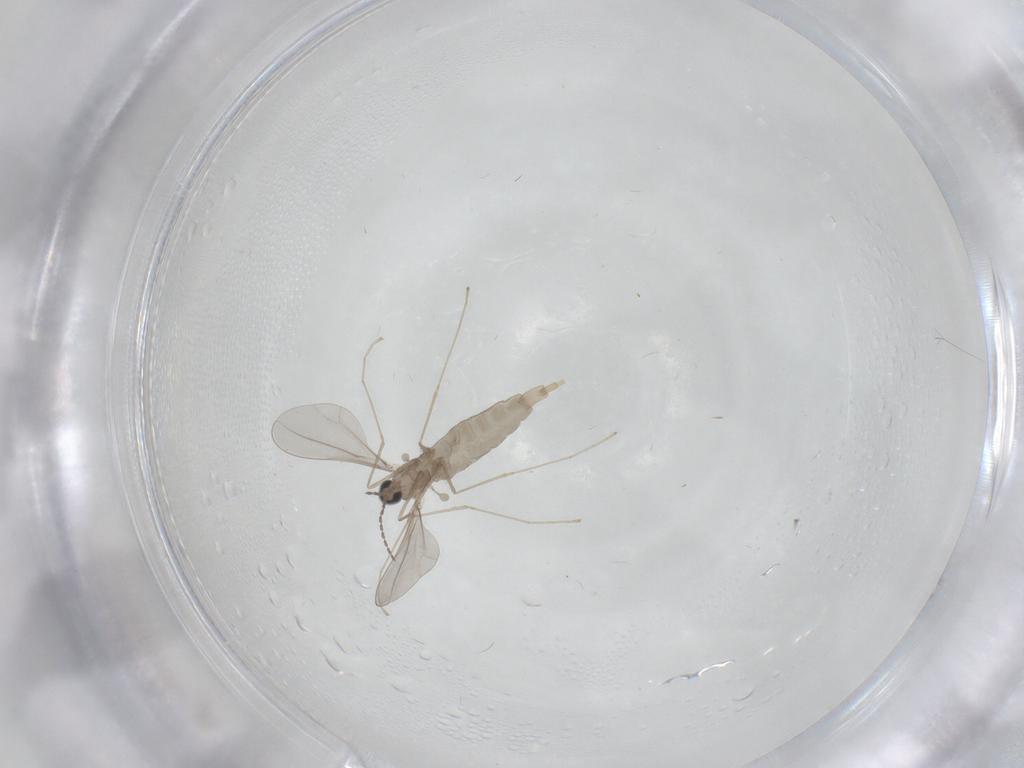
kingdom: Animalia
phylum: Arthropoda
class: Insecta
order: Diptera
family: Cecidomyiidae
